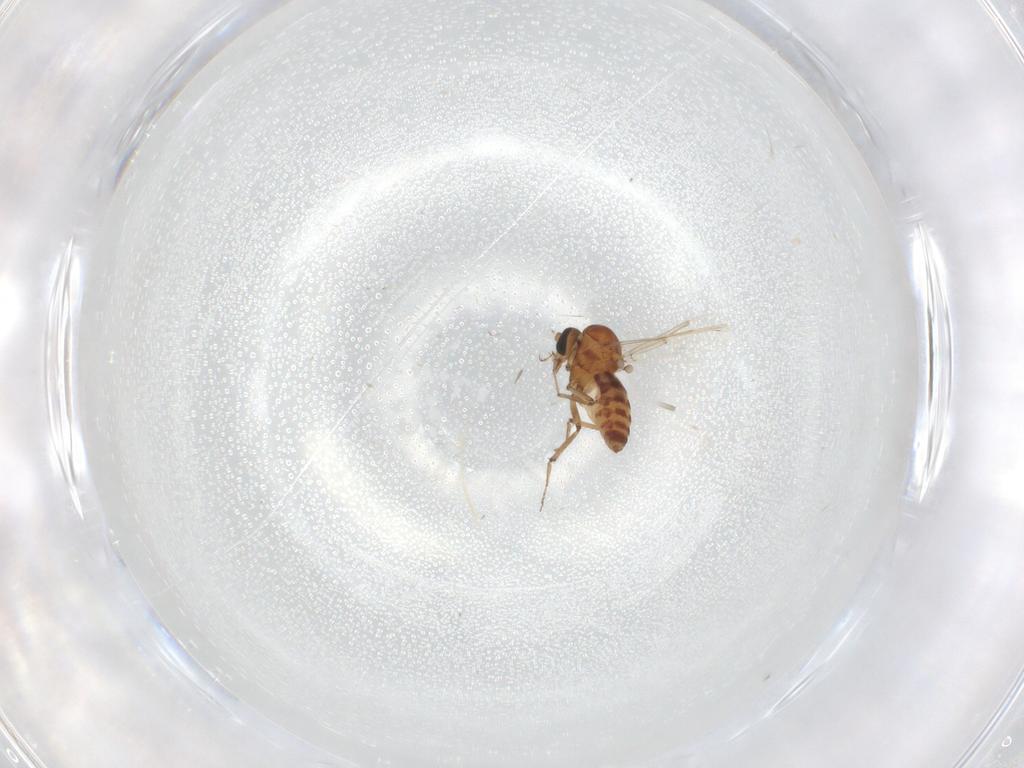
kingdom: Animalia
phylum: Arthropoda
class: Insecta
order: Diptera
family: Ceratopogonidae
